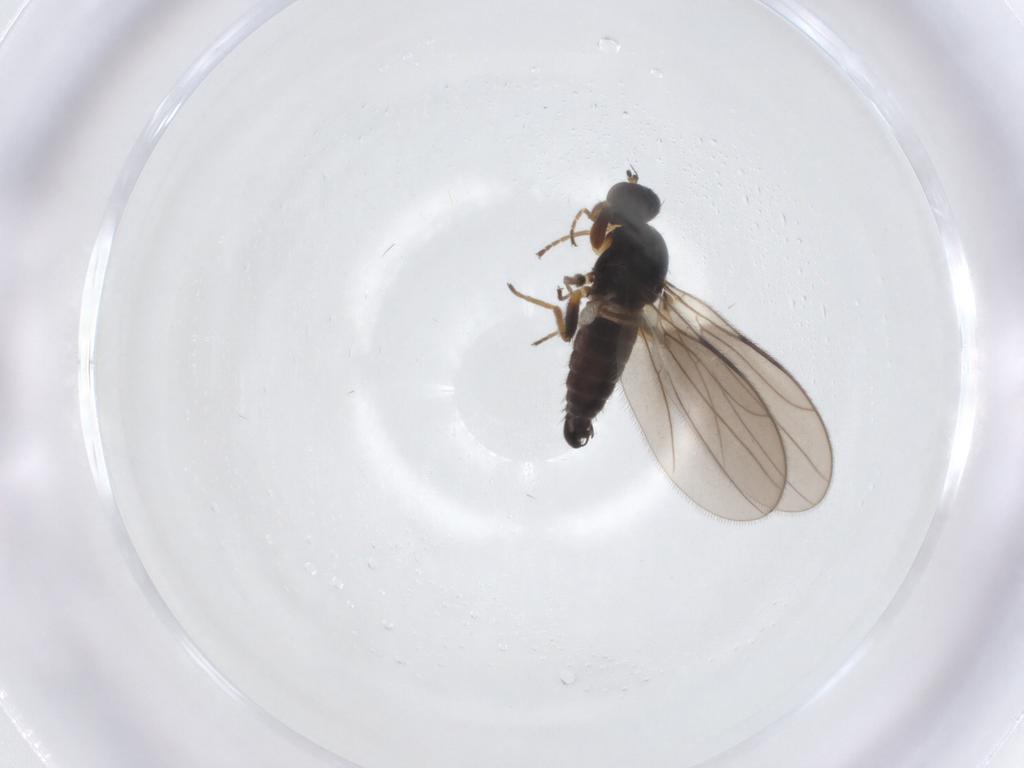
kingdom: Animalia
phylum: Arthropoda
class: Insecta
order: Diptera
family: Hybotidae
